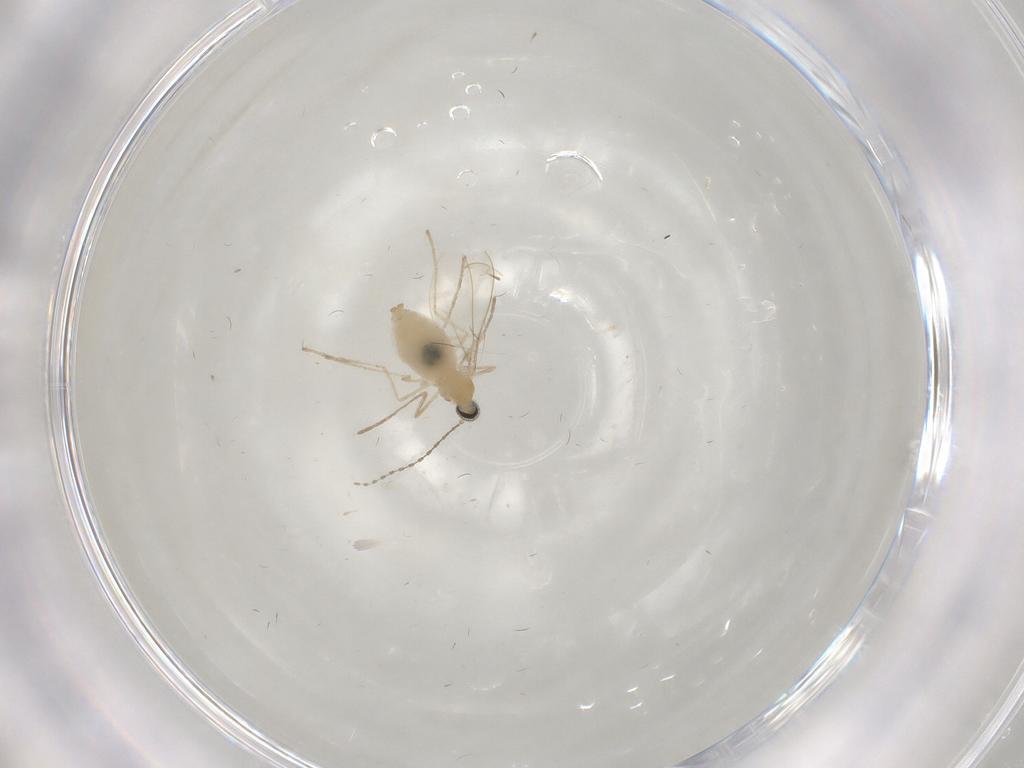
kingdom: Animalia
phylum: Arthropoda
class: Insecta
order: Diptera
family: Cecidomyiidae
